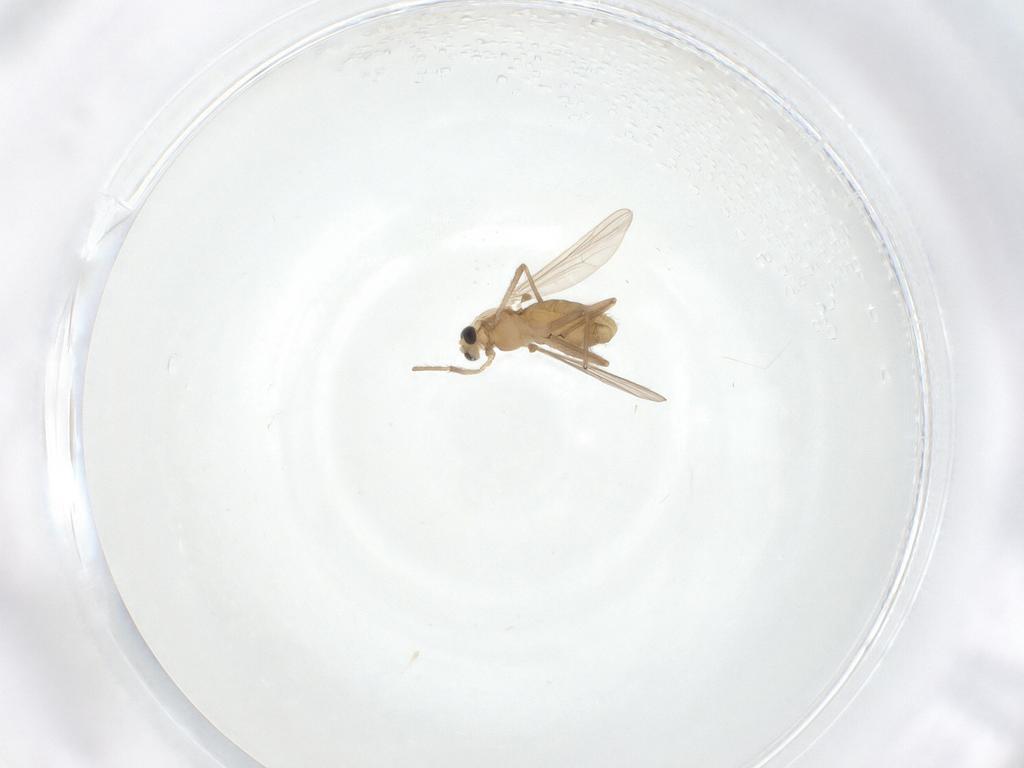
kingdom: Animalia
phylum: Arthropoda
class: Insecta
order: Diptera
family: Chironomidae
